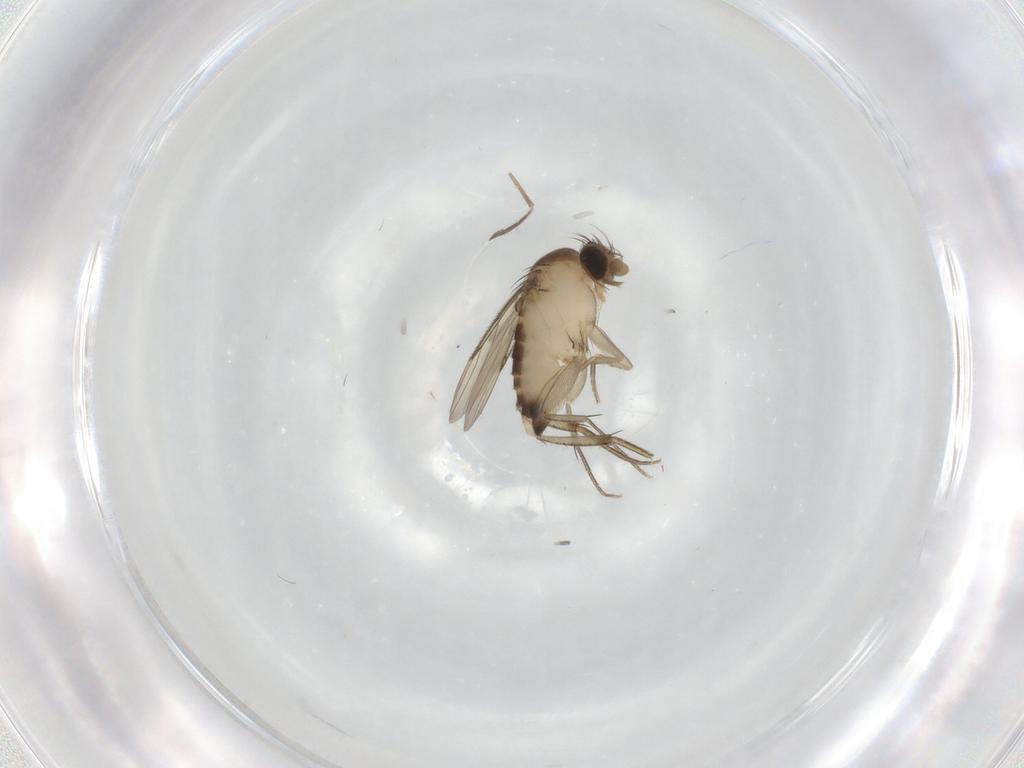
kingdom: Animalia
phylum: Arthropoda
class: Insecta
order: Diptera
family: Phoridae
